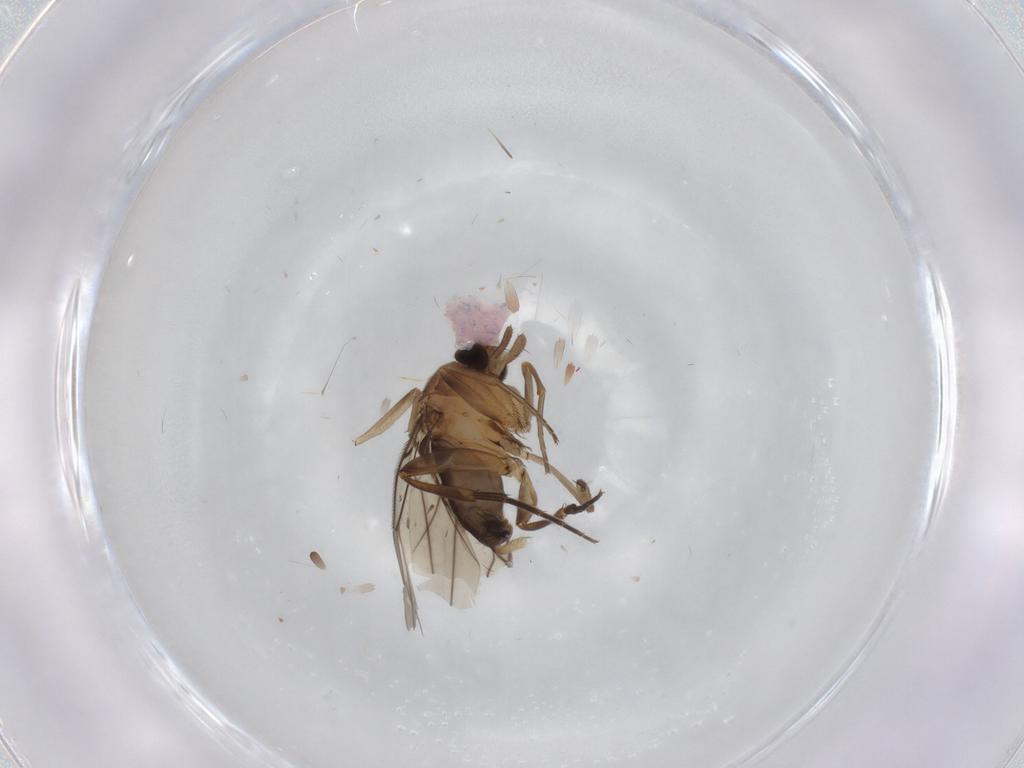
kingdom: Animalia
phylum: Arthropoda
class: Insecta
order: Diptera
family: Phoridae
